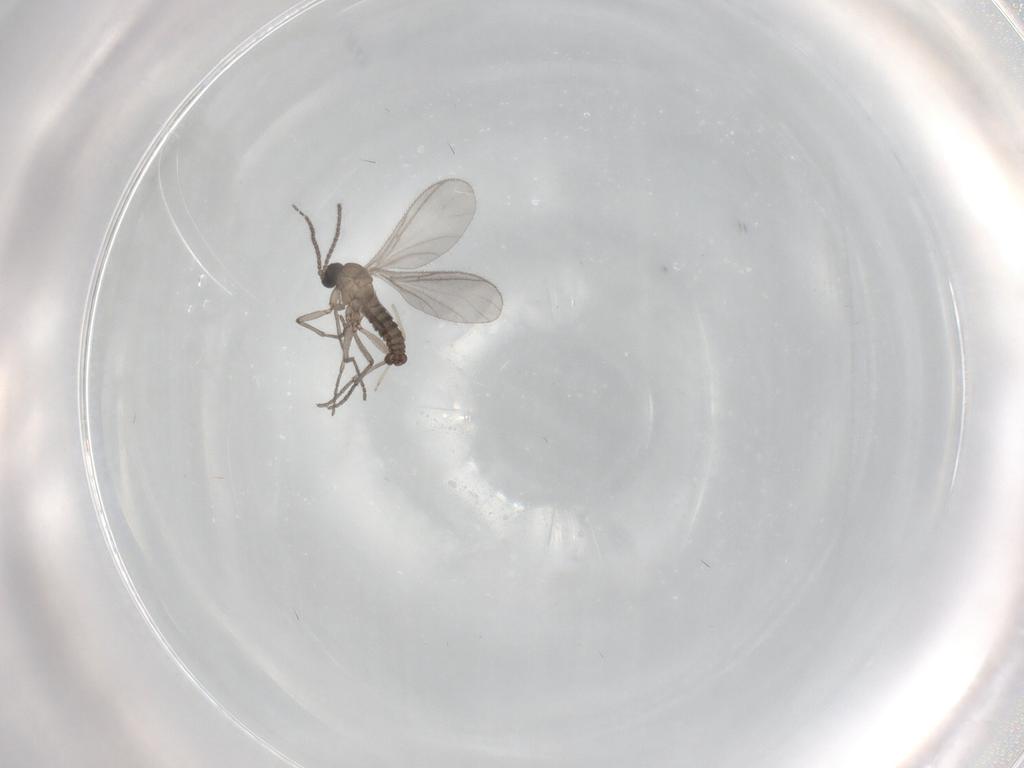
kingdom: Animalia
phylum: Arthropoda
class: Insecta
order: Diptera
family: Sciaridae
